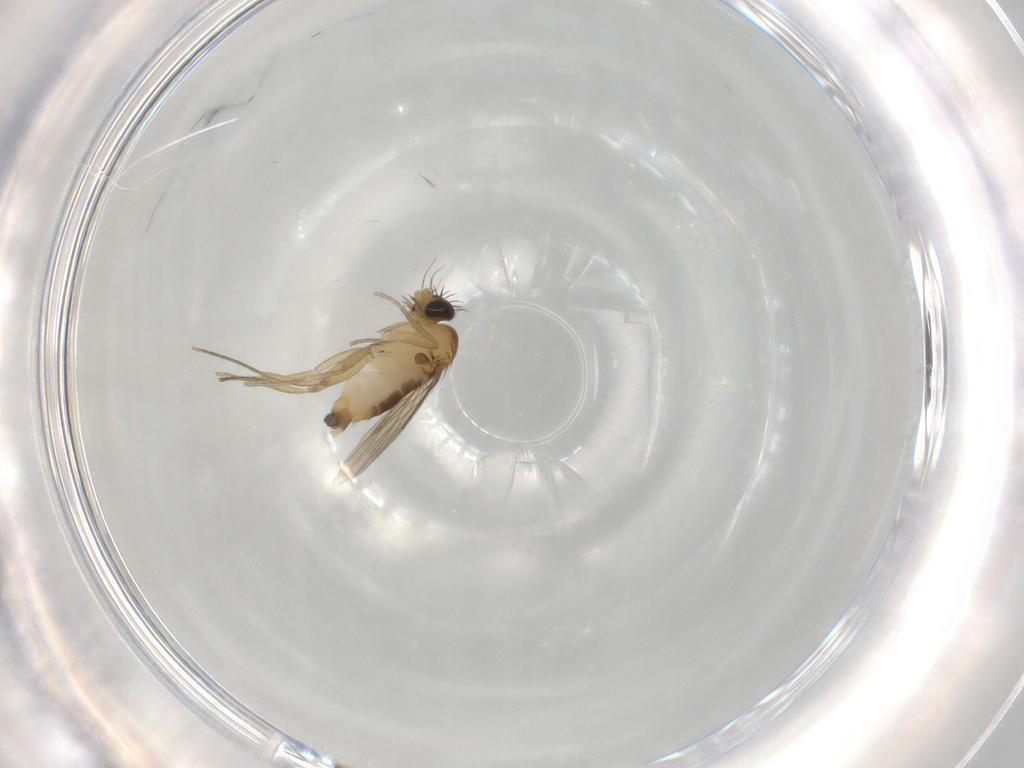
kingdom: Animalia
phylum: Arthropoda
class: Insecta
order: Diptera
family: Phoridae
